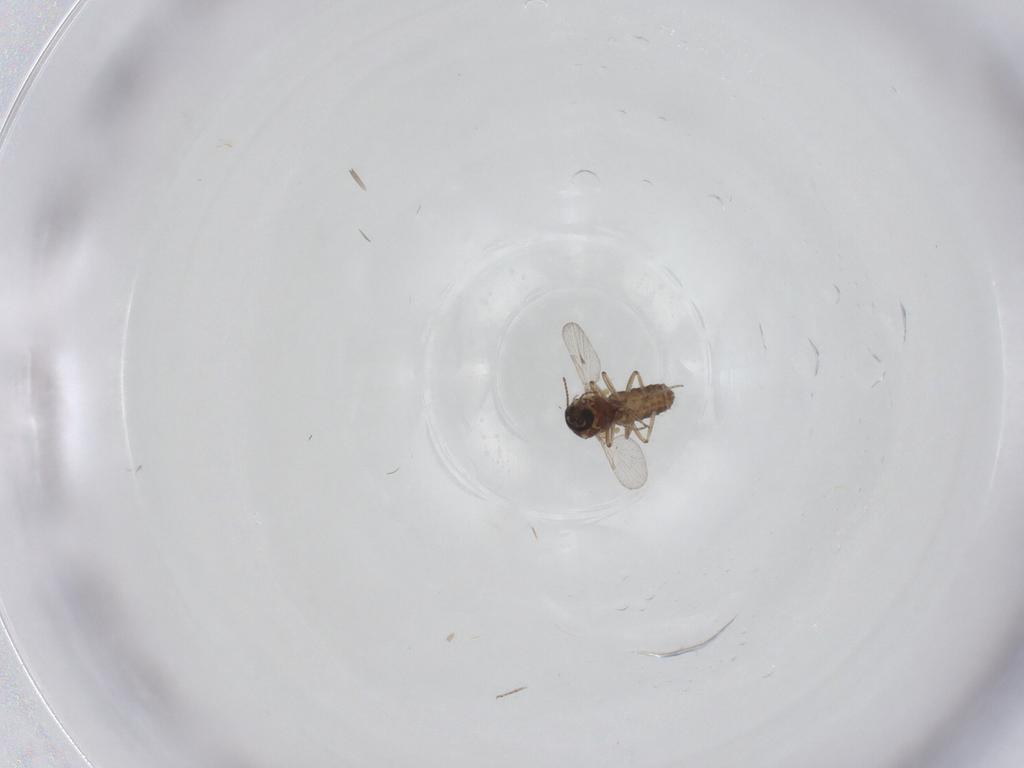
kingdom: Animalia
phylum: Arthropoda
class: Insecta
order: Diptera
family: Ceratopogonidae
